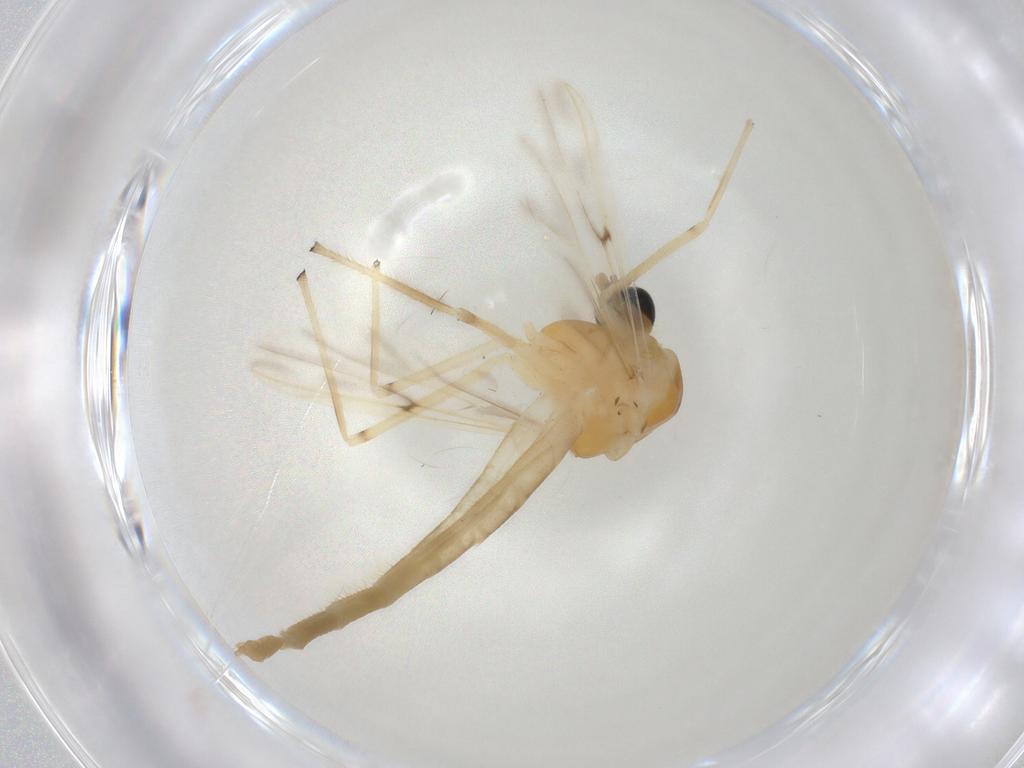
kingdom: Animalia
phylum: Arthropoda
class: Insecta
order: Diptera
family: Chironomidae
